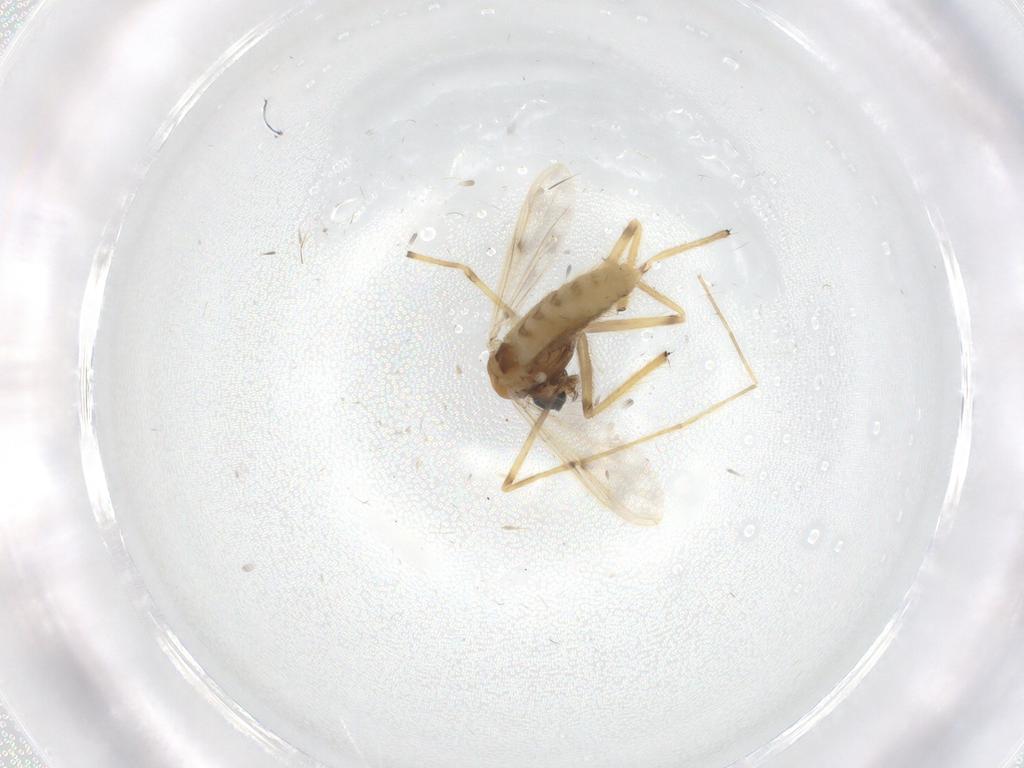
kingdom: Animalia
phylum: Arthropoda
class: Insecta
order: Diptera
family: Chironomidae
